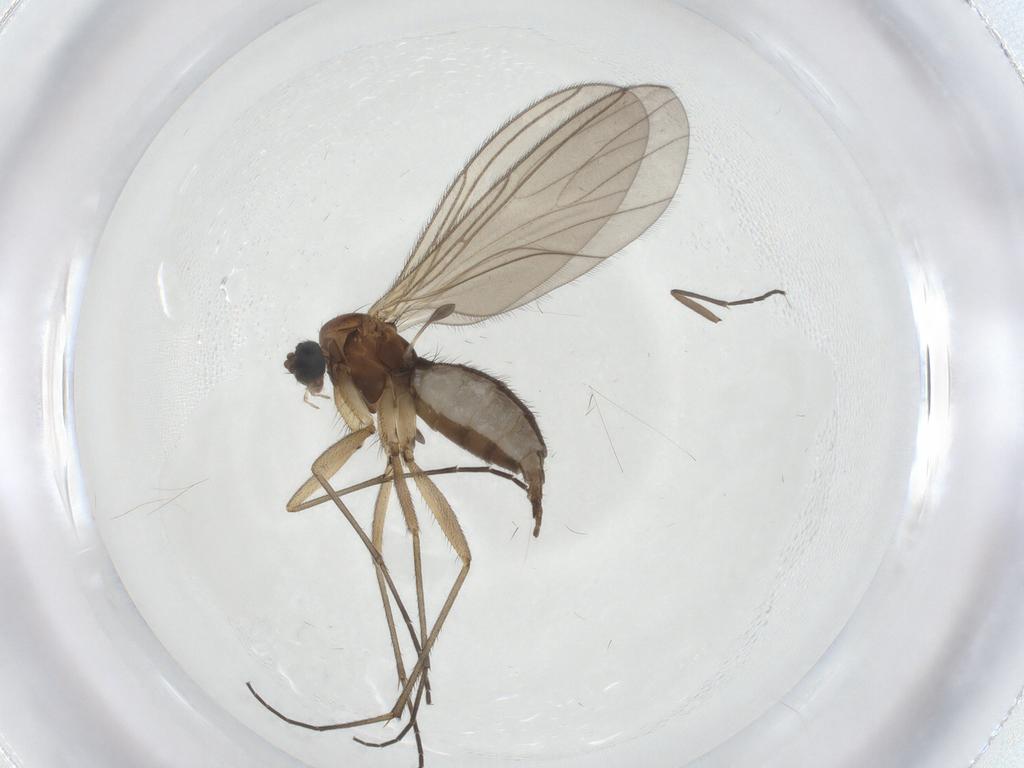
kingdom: Animalia
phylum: Arthropoda
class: Insecta
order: Diptera
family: Sciaridae
